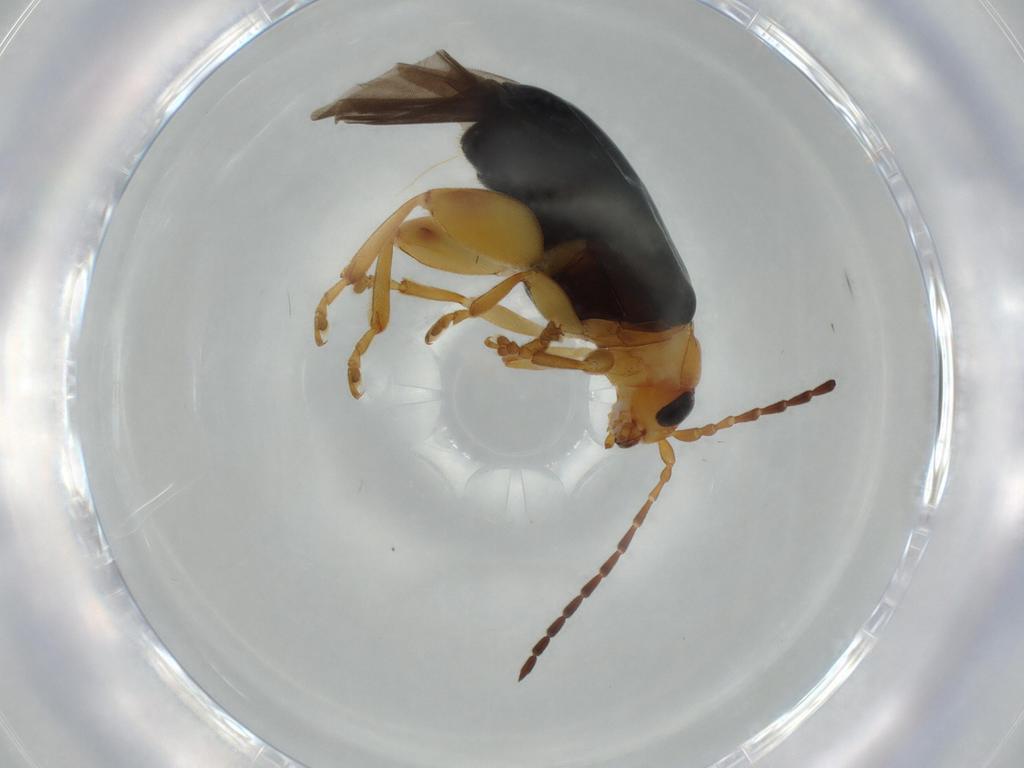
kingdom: Animalia
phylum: Arthropoda
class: Insecta
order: Coleoptera
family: Chrysomelidae
